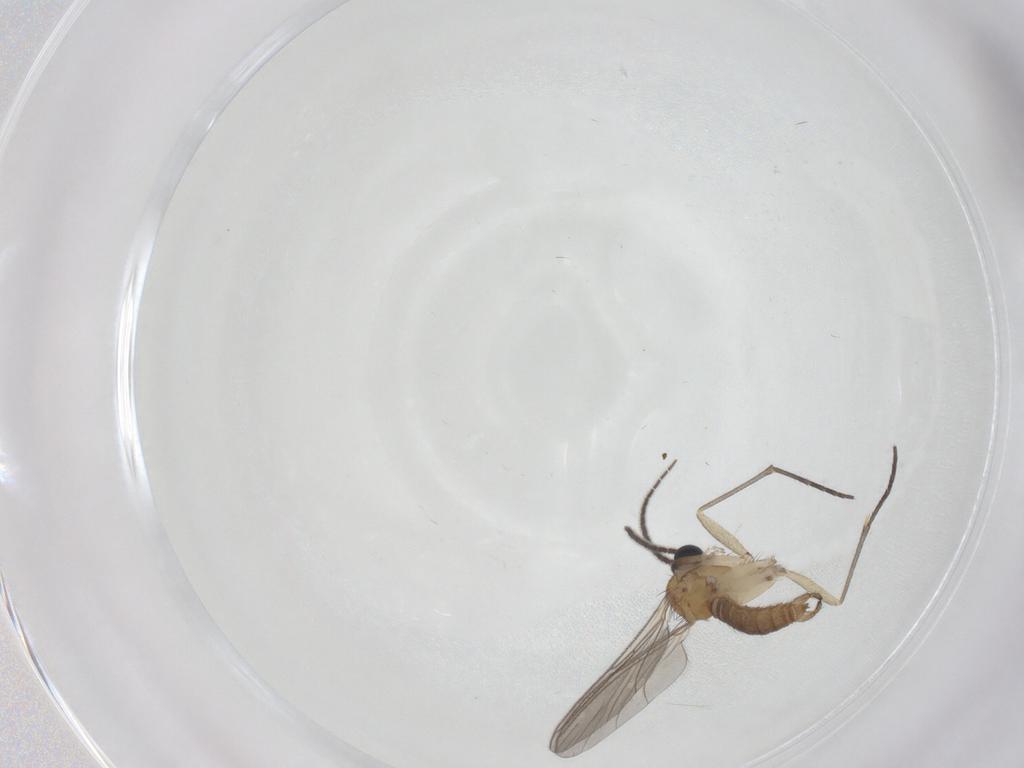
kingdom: Animalia
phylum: Arthropoda
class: Insecta
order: Diptera
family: Sciaridae
